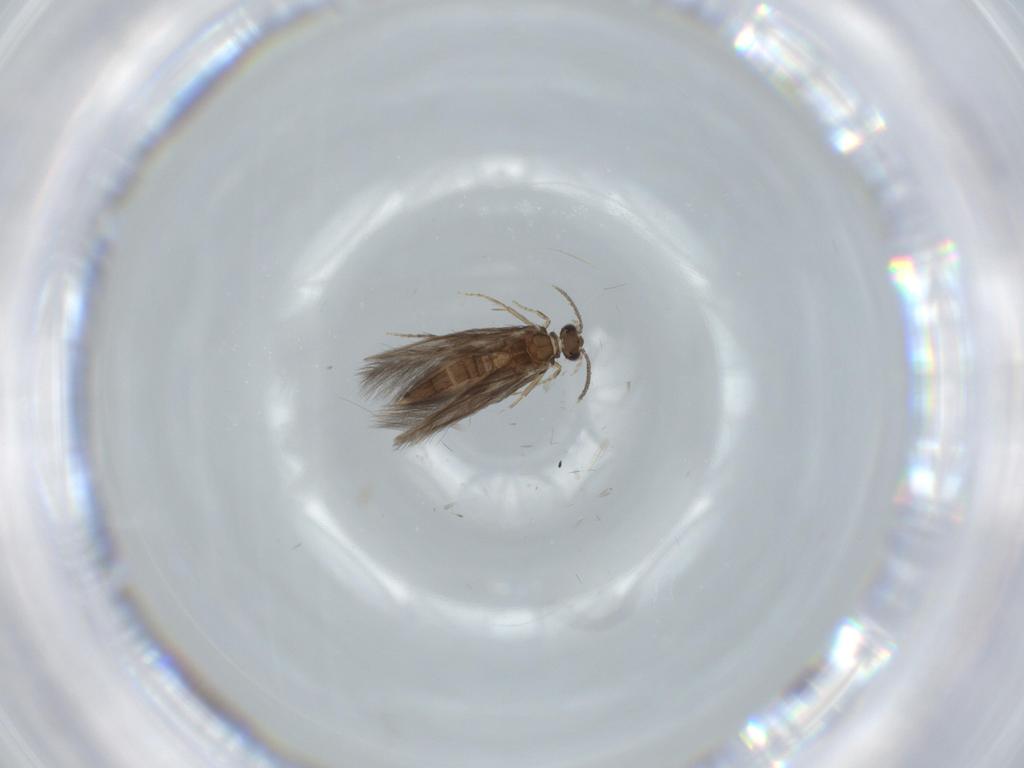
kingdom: Animalia
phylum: Arthropoda
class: Insecta
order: Trichoptera
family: Hydroptilidae
